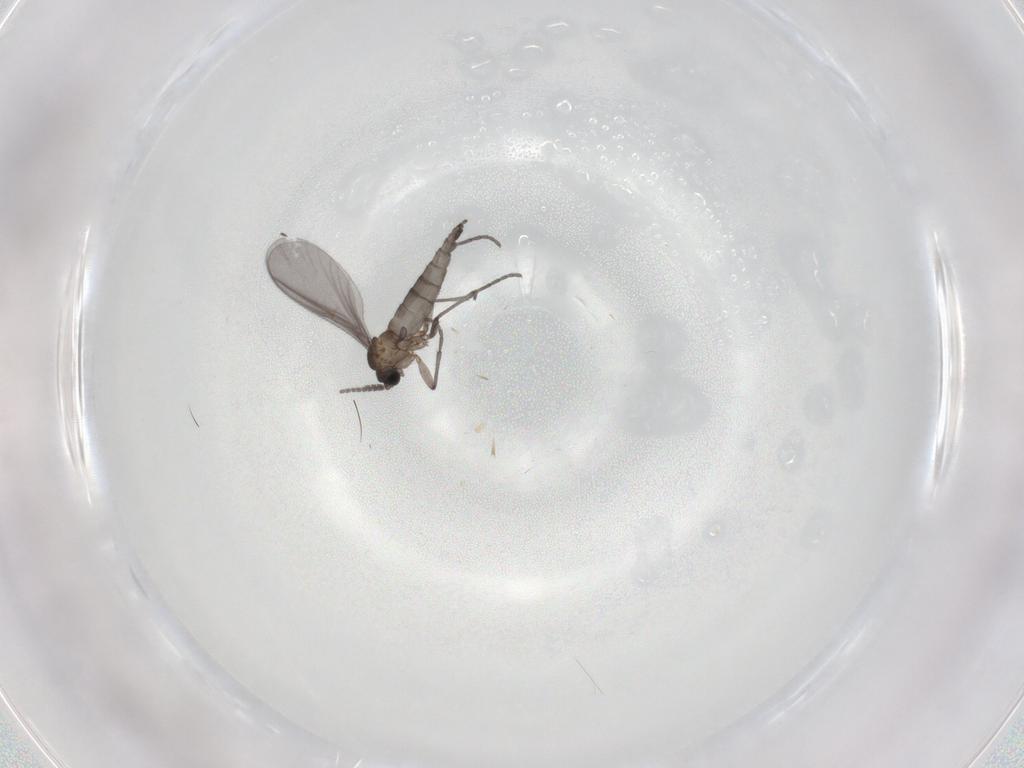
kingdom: Animalia
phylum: Arthropoda
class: Insecta
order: Diptera
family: Sciaridae
